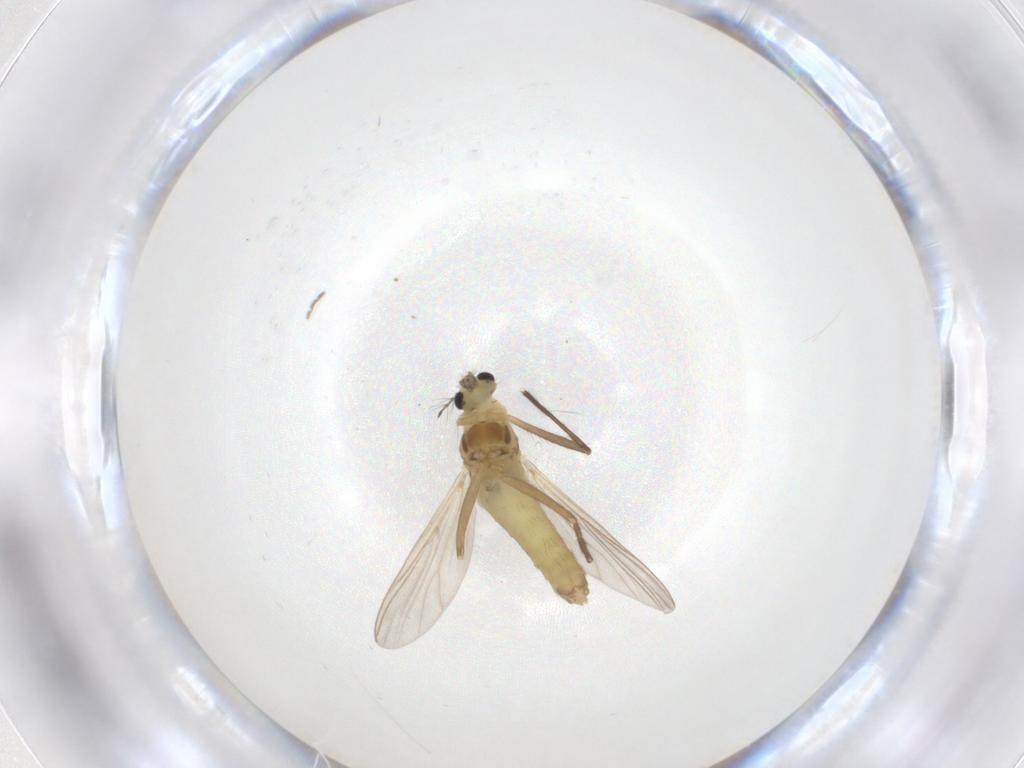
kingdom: Animalia
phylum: Arthropoda
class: Insecta
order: Diptera
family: Chironomidae
